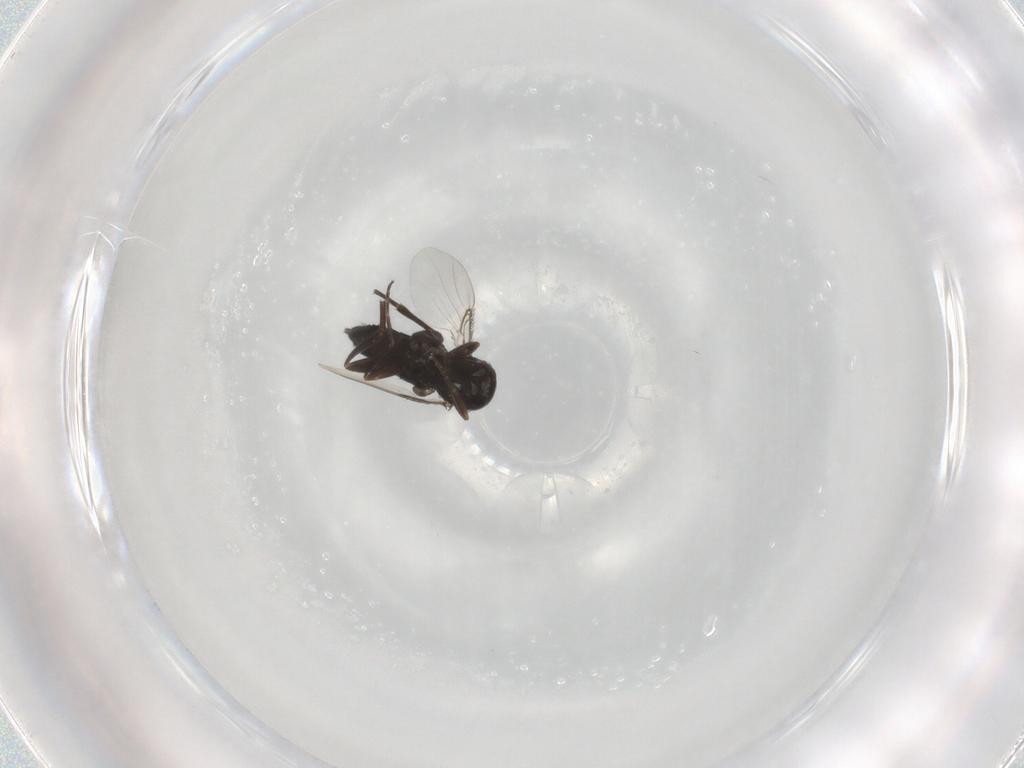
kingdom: Animalia
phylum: Arthropoda
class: Insecta
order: Diptera
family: Phoridae
